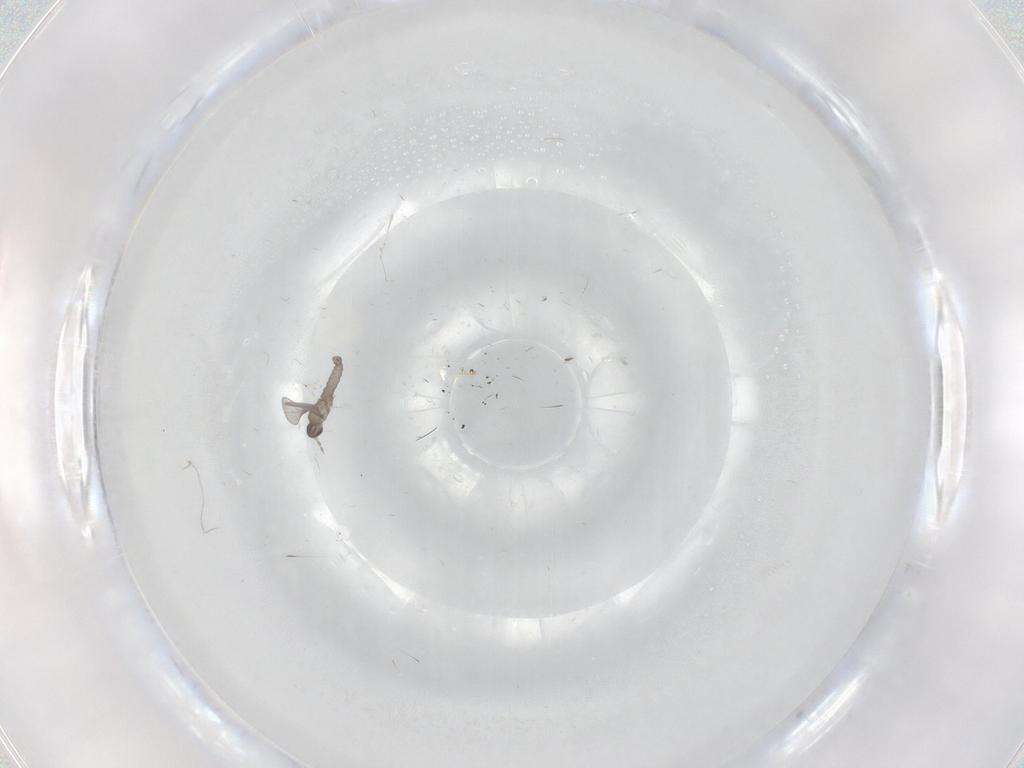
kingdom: Animalia
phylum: Arthropoda
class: Insecta
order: Diptera
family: Cecidomyiidae
